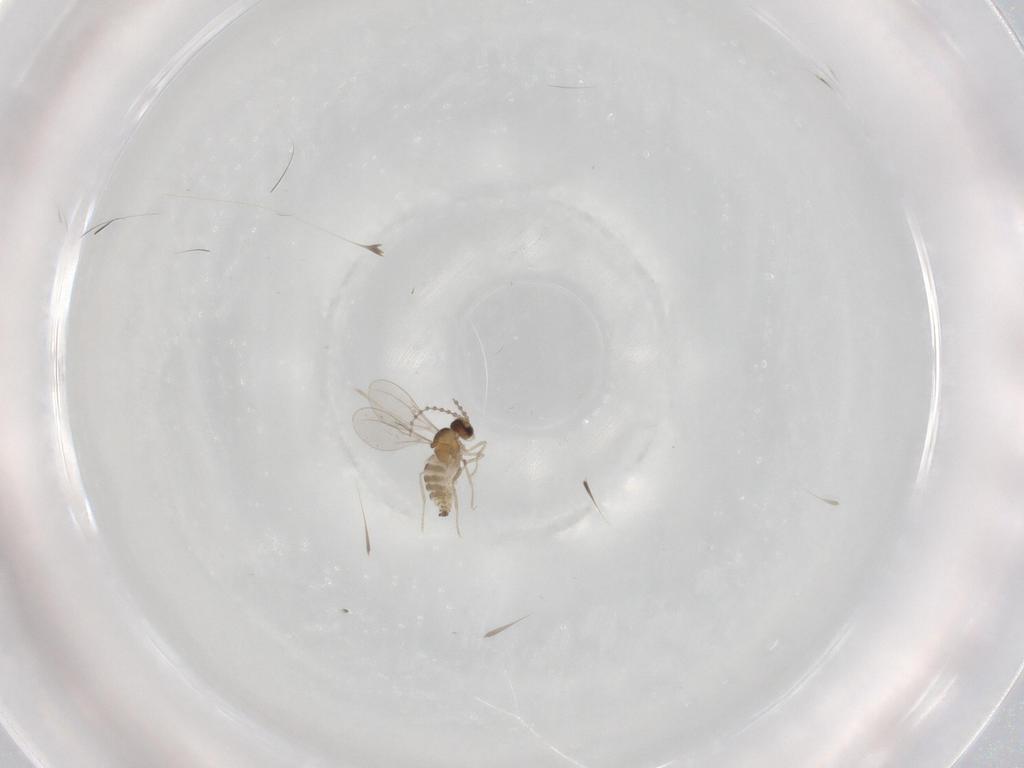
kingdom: Animalia
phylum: Arthropoda
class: Insecta
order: Diptera
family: Cecidomyiidae
